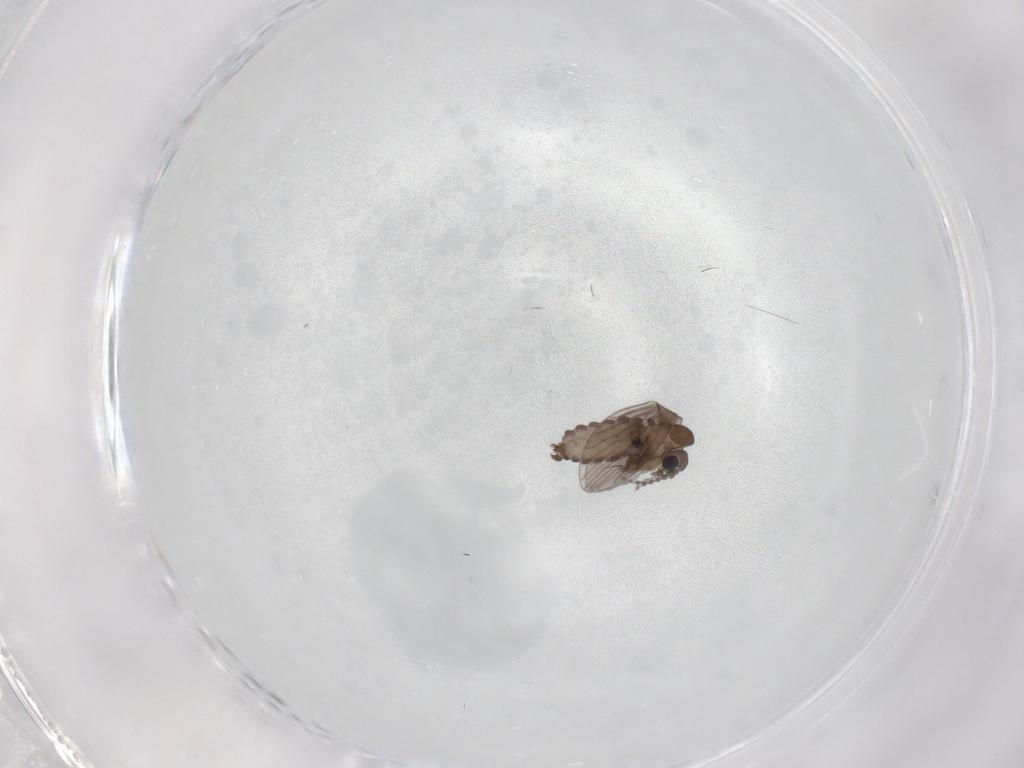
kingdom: Animalia
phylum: Arthropoda
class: Insecta
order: Diptera
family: Psychodidae
